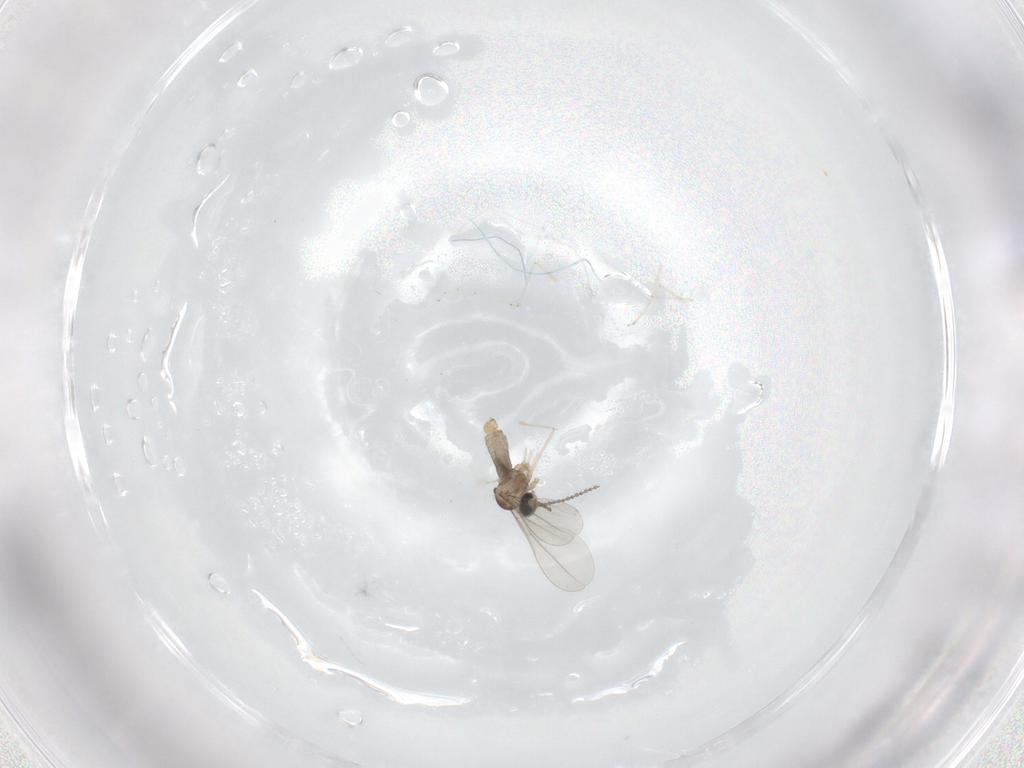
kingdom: Animalia
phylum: Arthropoda
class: Insecta
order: Diptera
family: Cecidomyiidae
